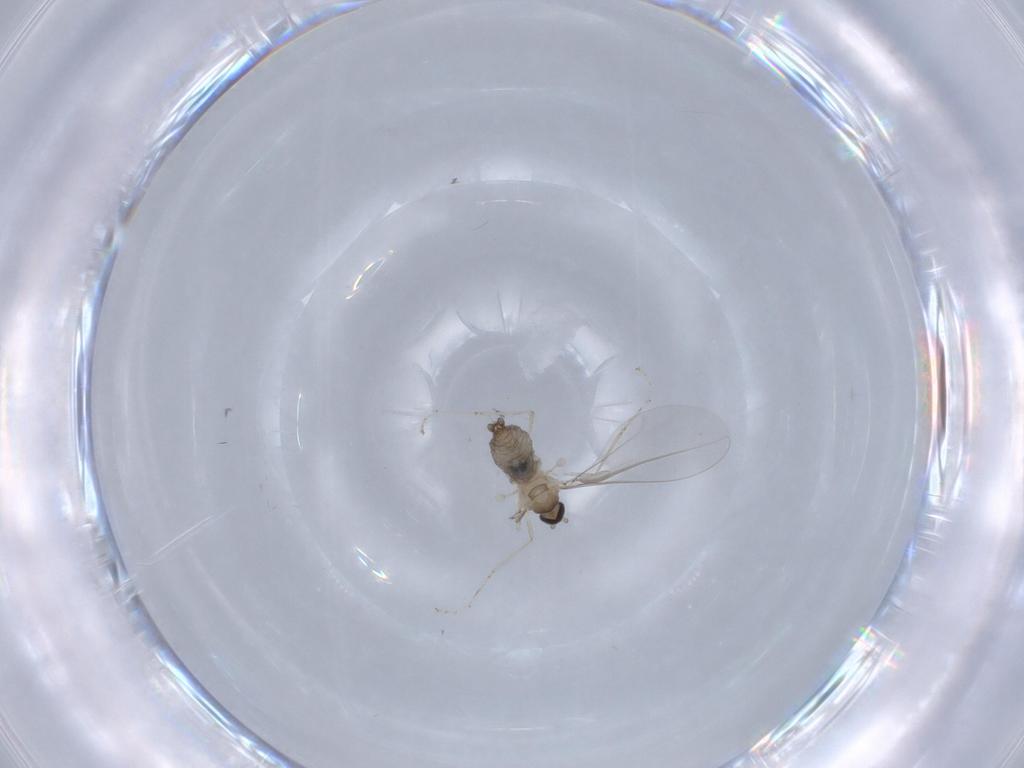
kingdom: Animalia
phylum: Arthropoda
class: Insecta
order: Diptera
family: Cecidomyiidae
